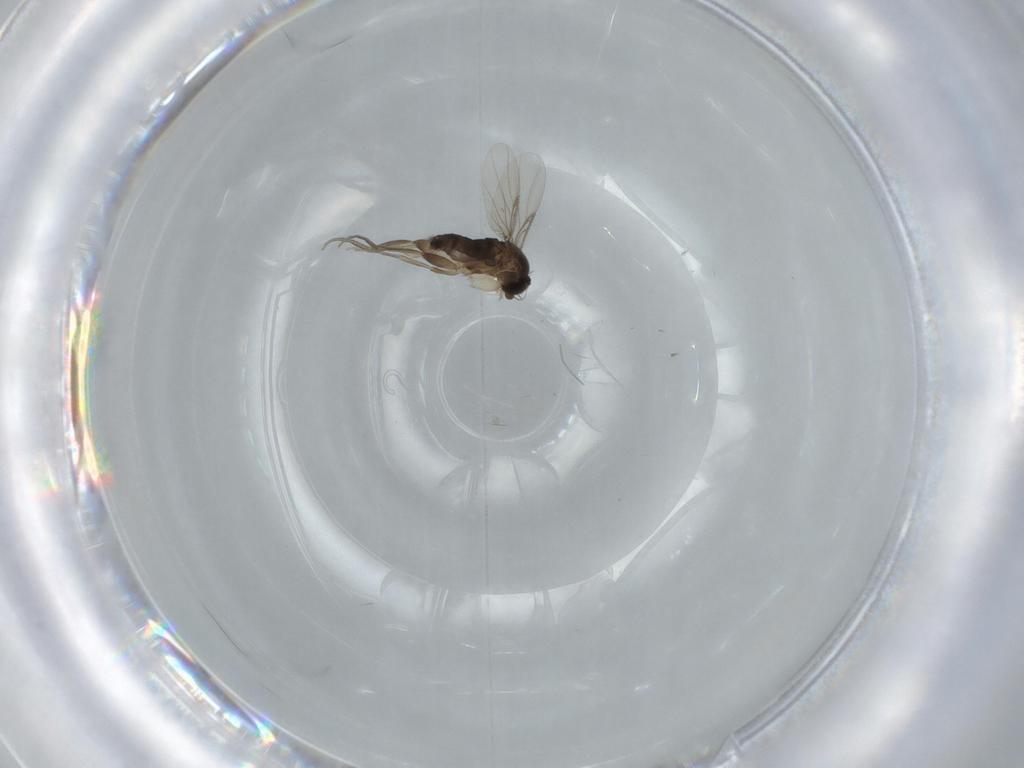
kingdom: Animalia
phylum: Arthropoda
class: Insecta
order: Diptera
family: Phoridae
